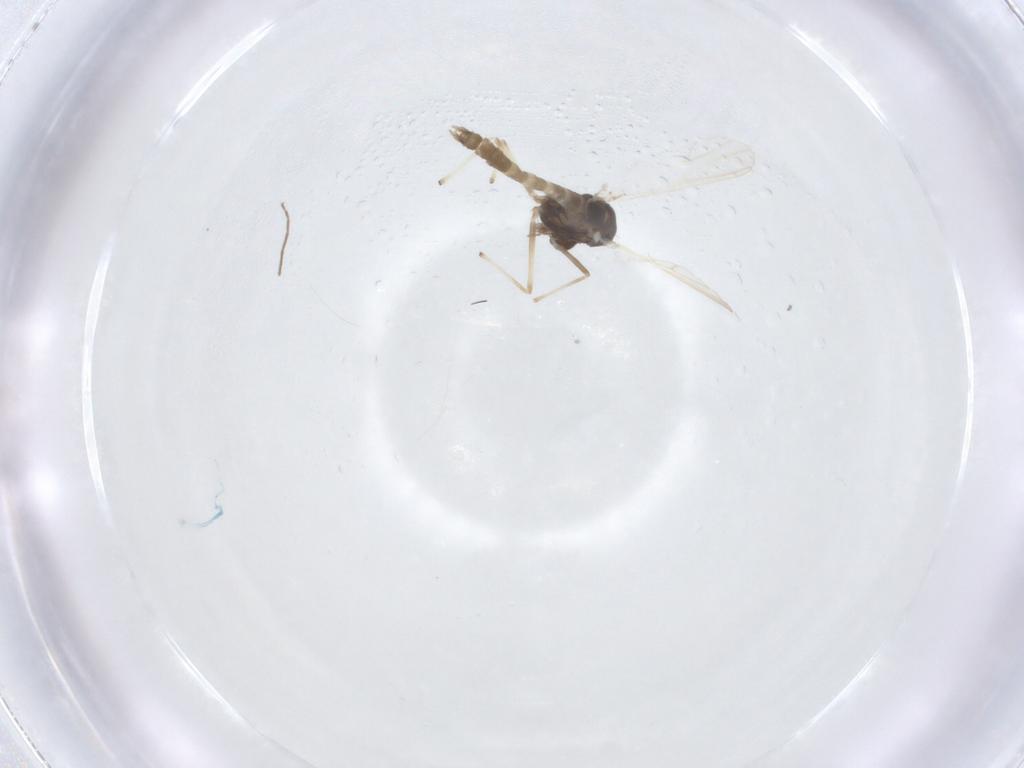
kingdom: Animalia
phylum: Arthropoda
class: Insecta
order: Diptera
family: Chironomidae
